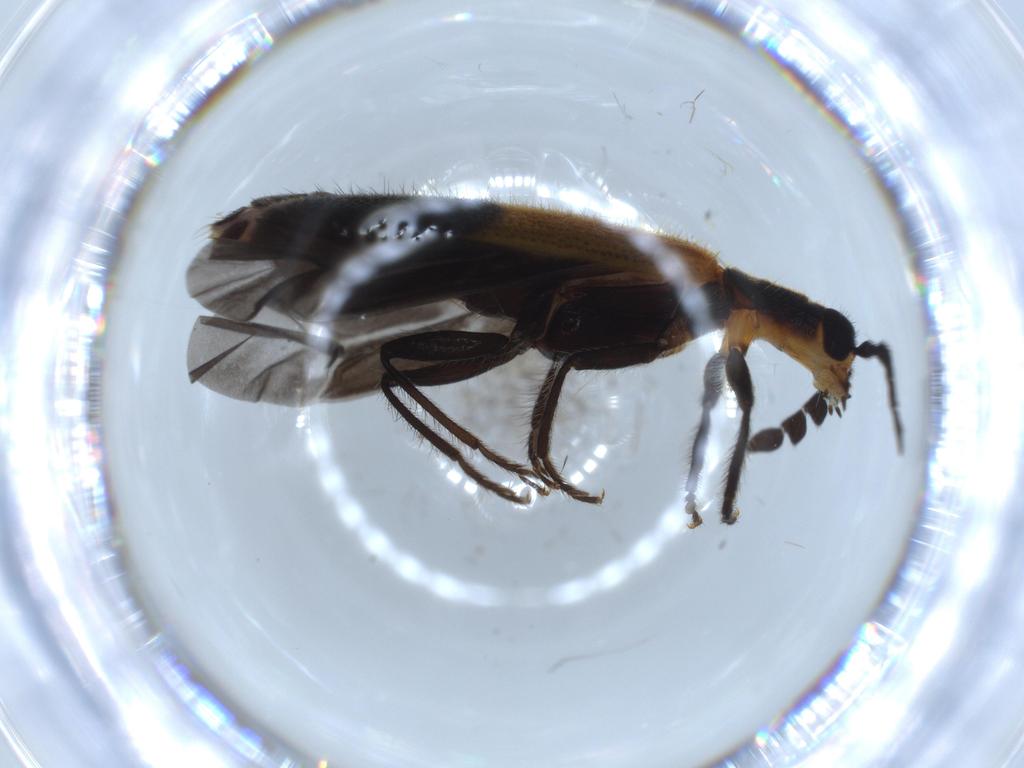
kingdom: Animalia
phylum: Arthropoda
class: Insecta
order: Coleoptera
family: Cleridae
